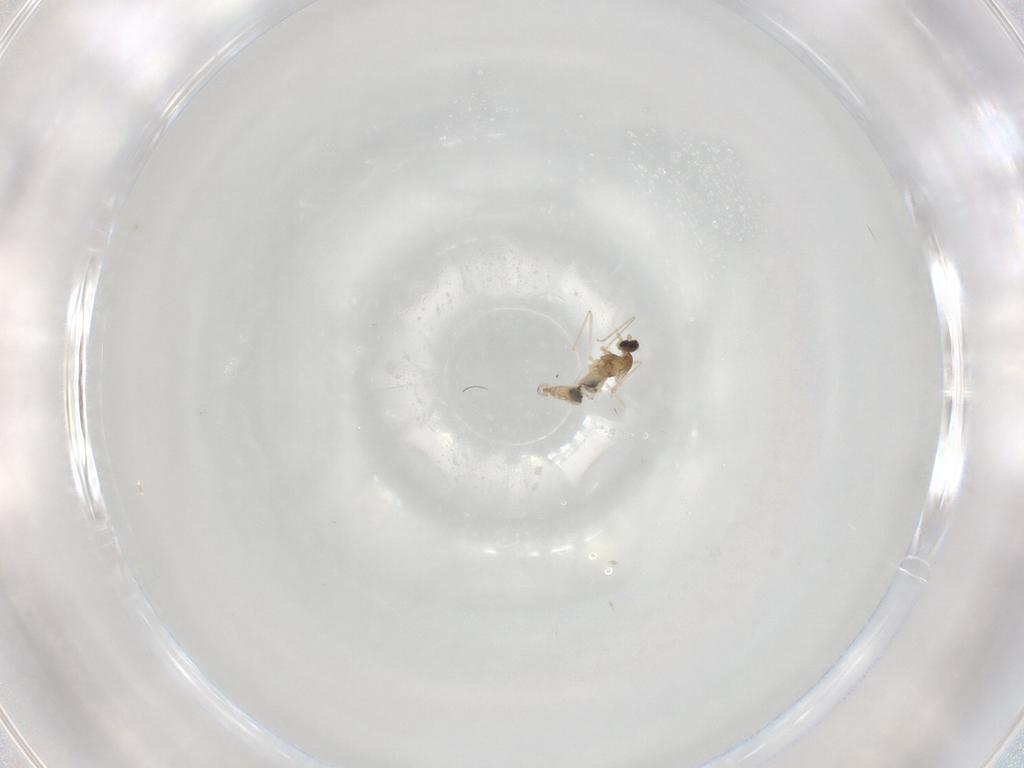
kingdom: Animalia
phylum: Arthropoda
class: Insecta
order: Diptera
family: Cecidomyiidae
